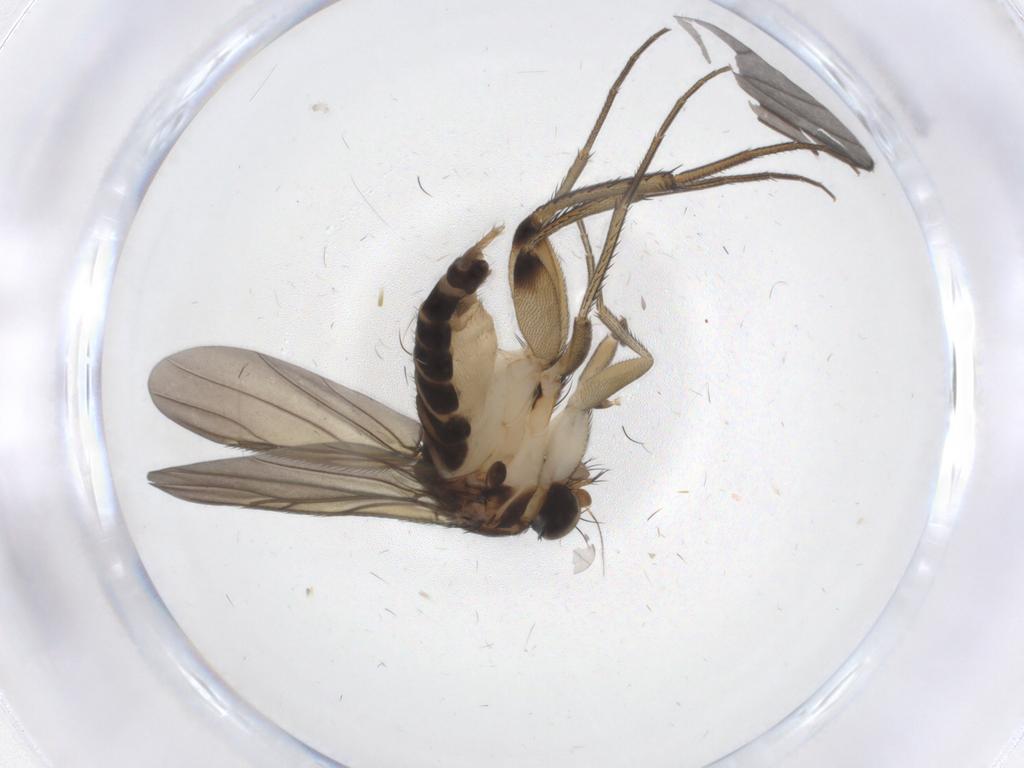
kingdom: Animalia
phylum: Arthropoda
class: Insecta
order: Diptera
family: Phoridae
